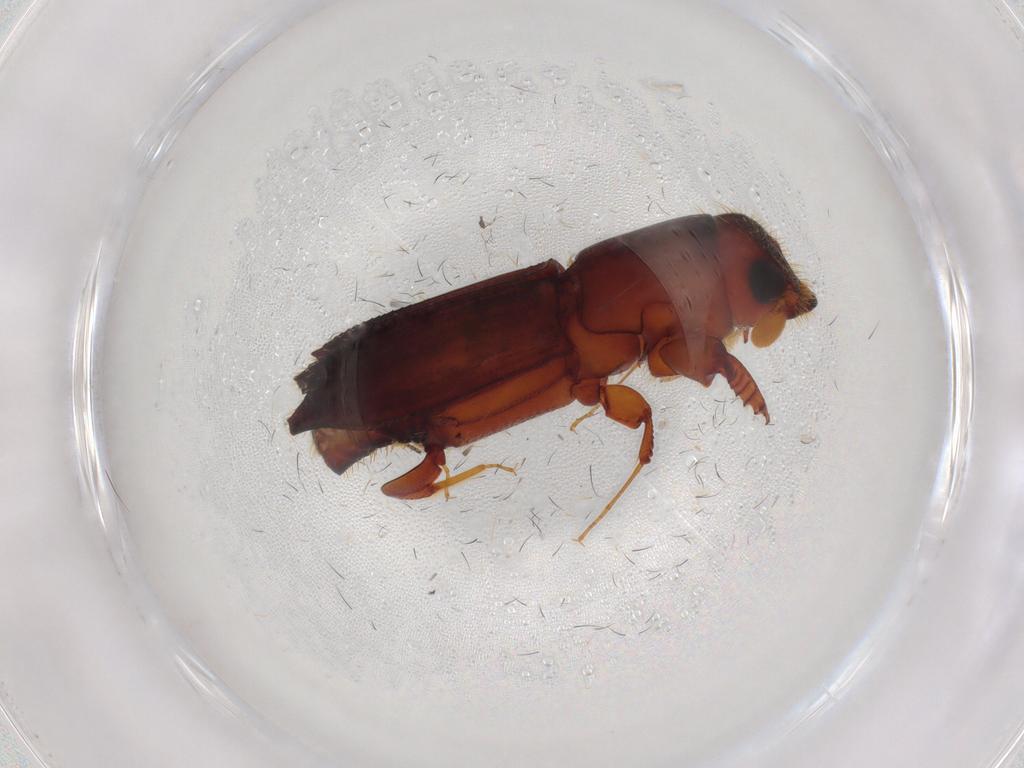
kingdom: Animalia
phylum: Arthropoda
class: Insecta
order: Coleoptera
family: Curculionidae
